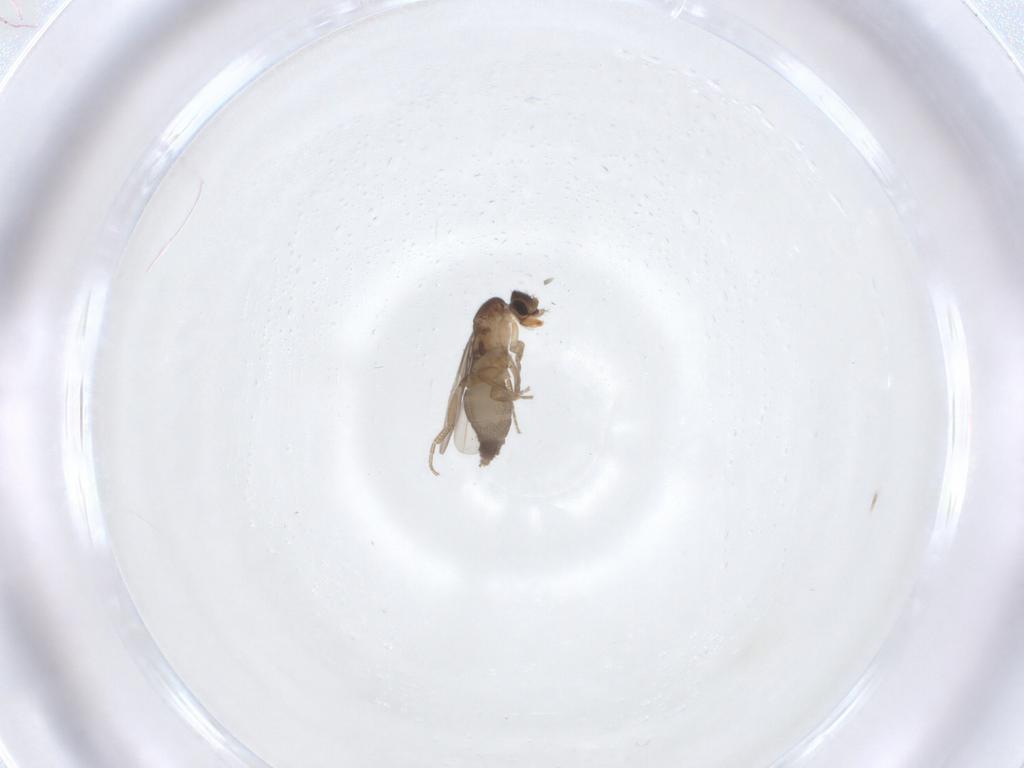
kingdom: Animalia
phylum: Arthropoda
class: Insecta
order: Diptera
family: Cecidomyiidae
